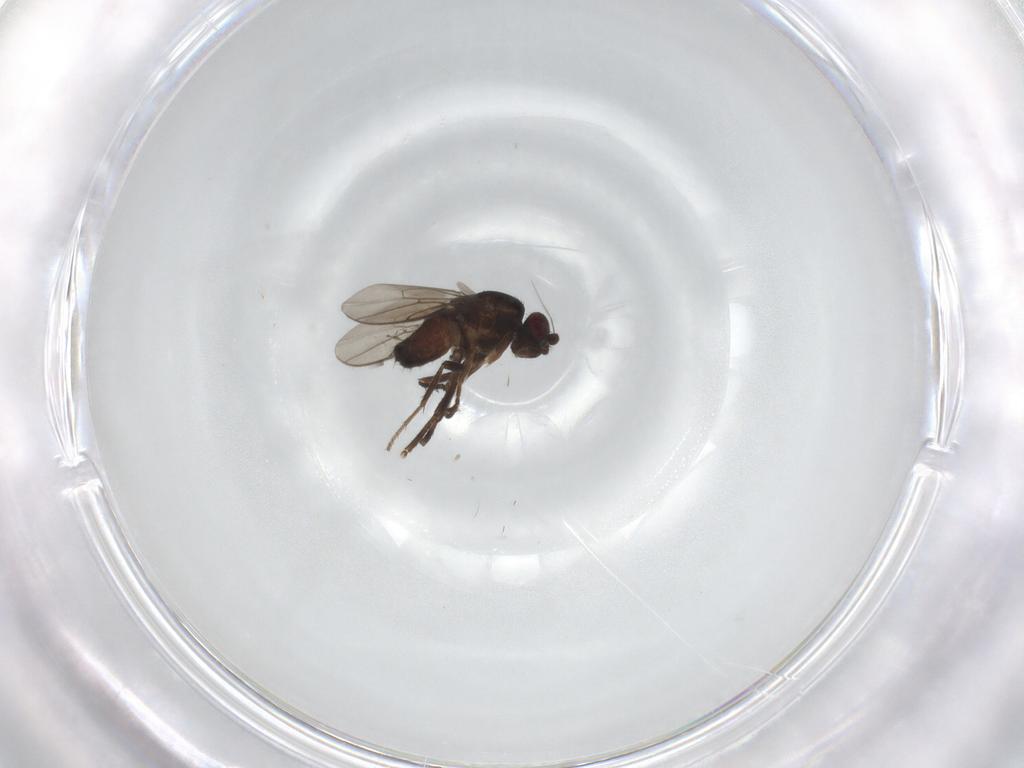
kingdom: Animalia
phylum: Arthropoda
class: Insecta
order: Diptera
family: Sphaeroceridae
